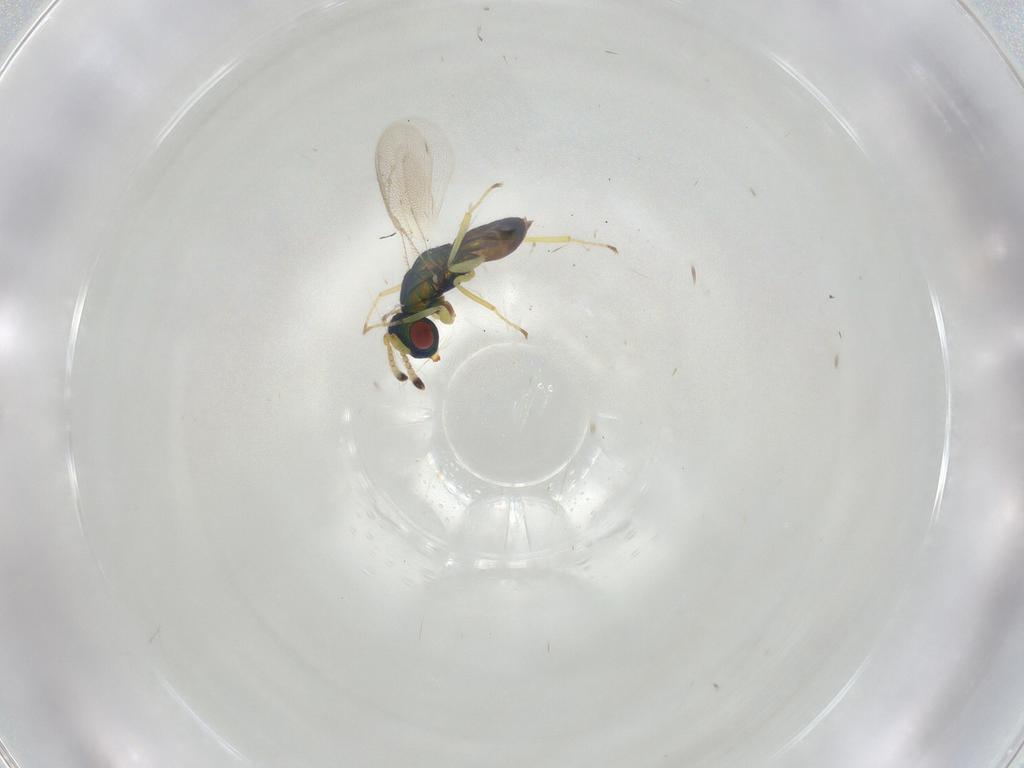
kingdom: Animalia
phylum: Arthropoda
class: Insecta
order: Hymenoptera
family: Pteromalidae
